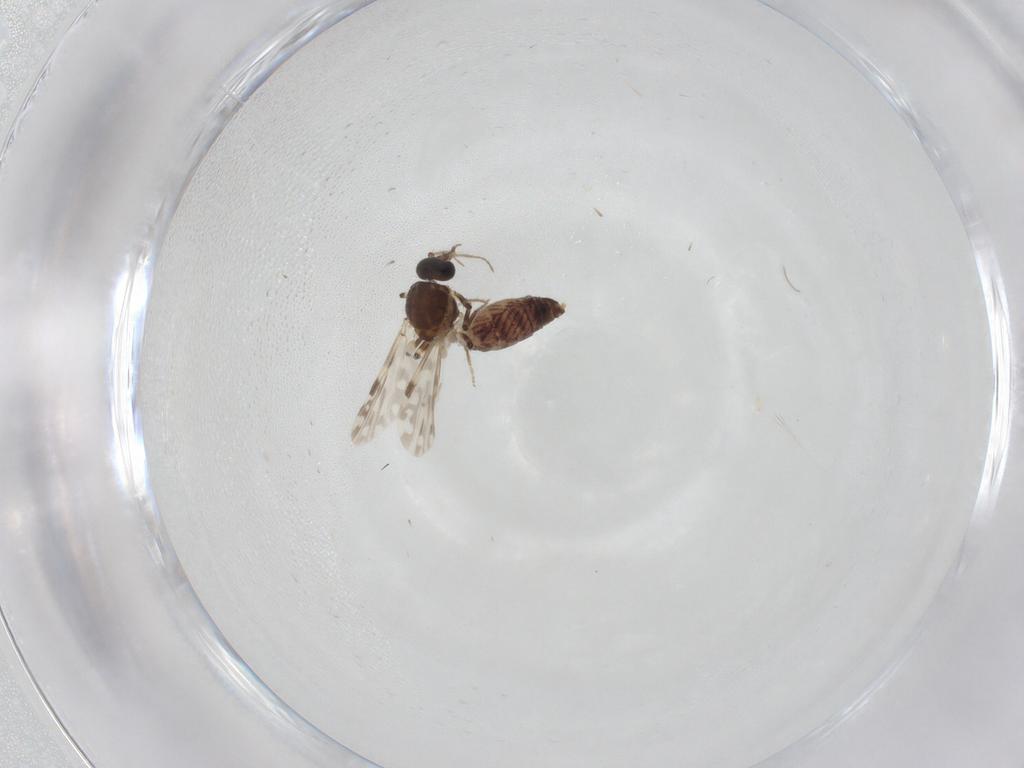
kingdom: Animalia
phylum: Arthropoda
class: Insecta
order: Diptera
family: Ceratopogonidae
